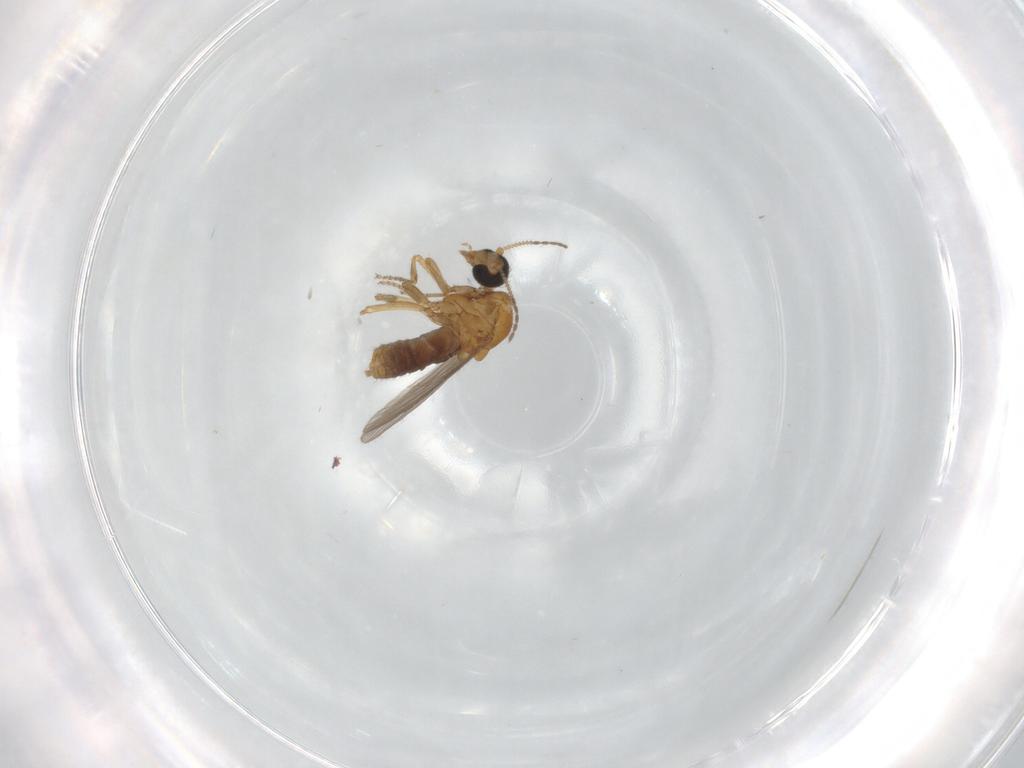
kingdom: Animalia
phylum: Arthropoda
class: Insecta
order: Diptera
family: Ceratopogonidae
